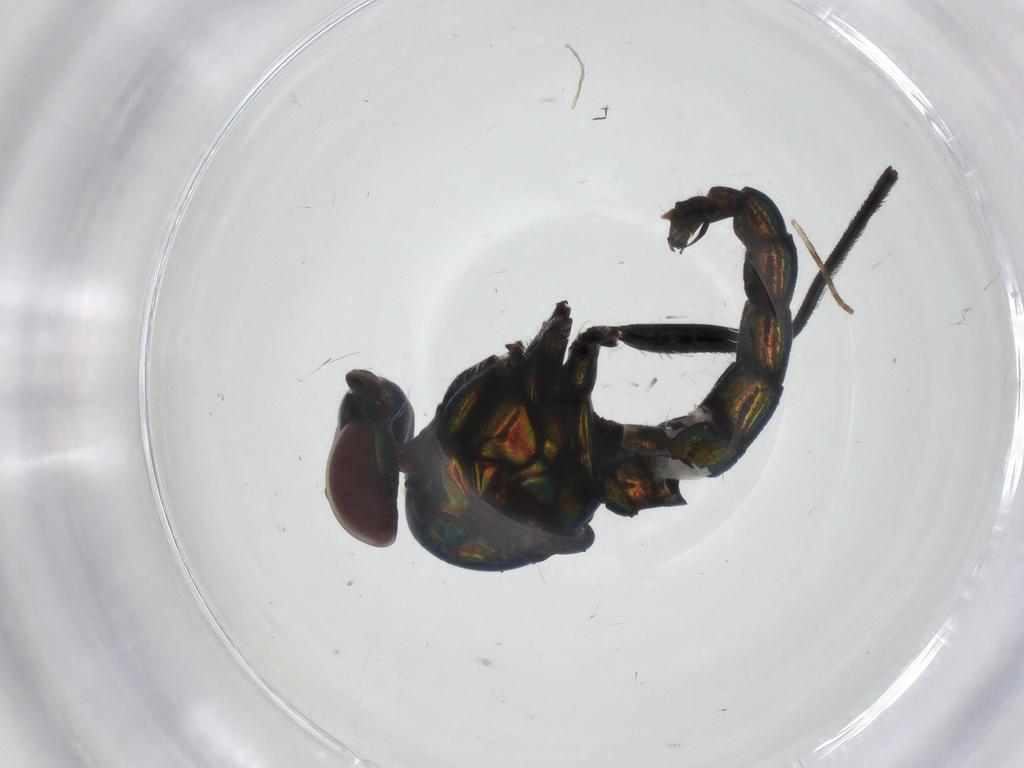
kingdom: Animalia
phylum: Arthropoda
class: Insecta
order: Diptera
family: Dolichopodidae
